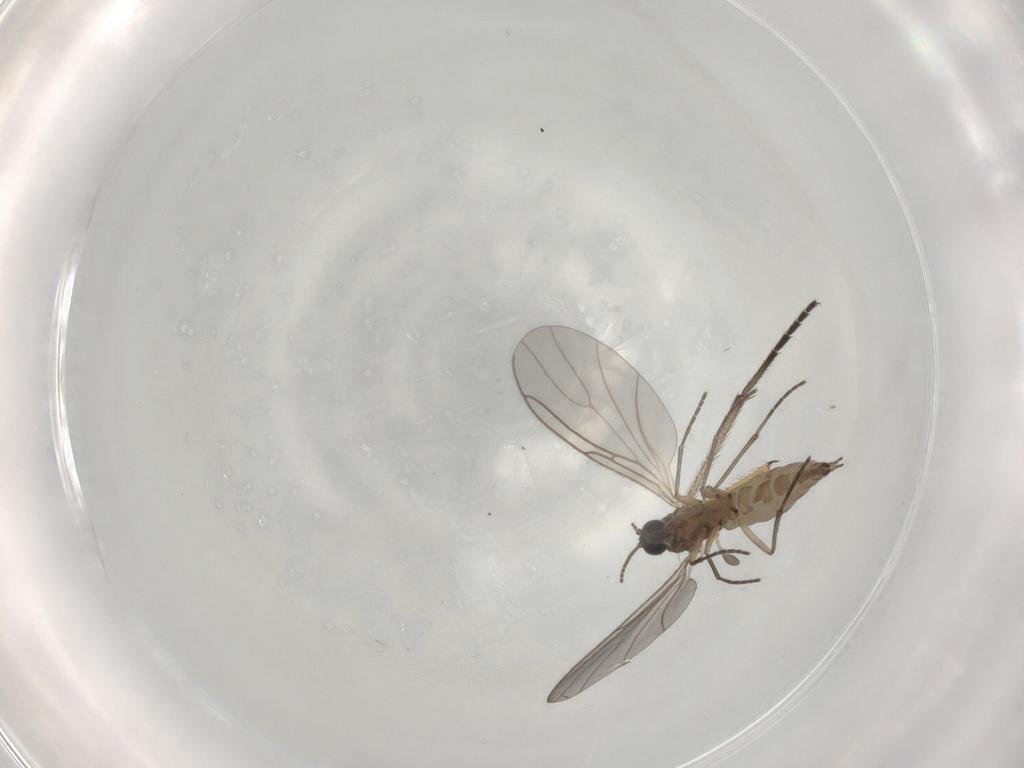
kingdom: Animalia
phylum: Arthropoda
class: Insecta
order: Diptera
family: Sciaridae
